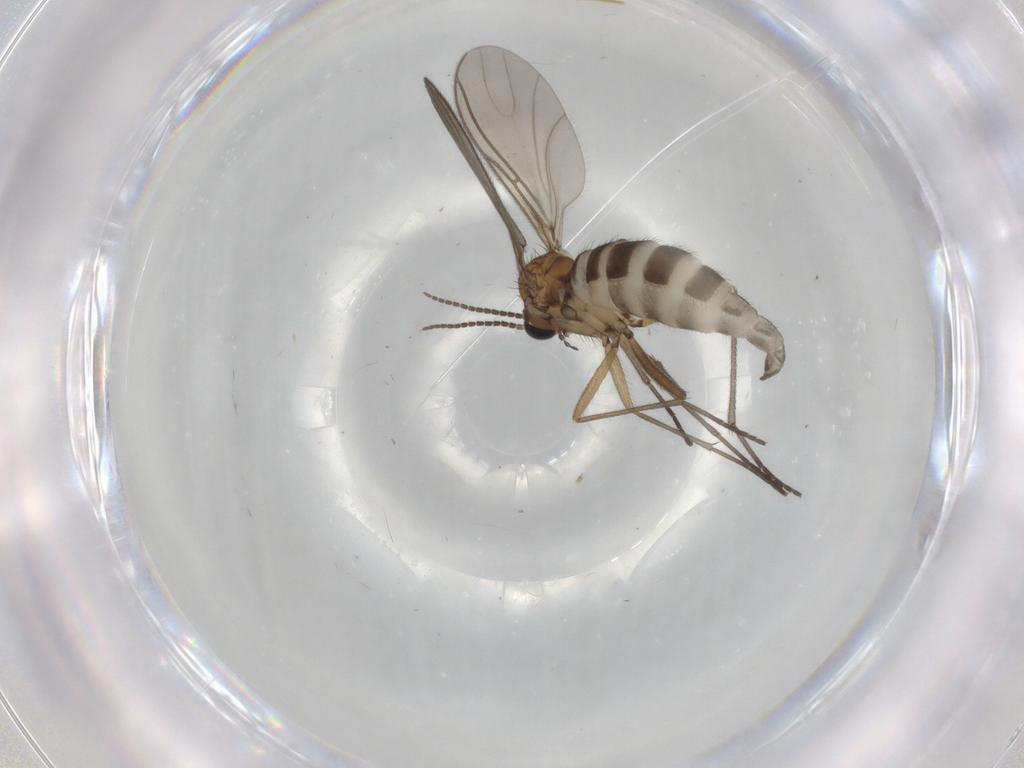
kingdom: Animalia
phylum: Arthropoda
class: Insecta
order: Diptera
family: Sciaridae
